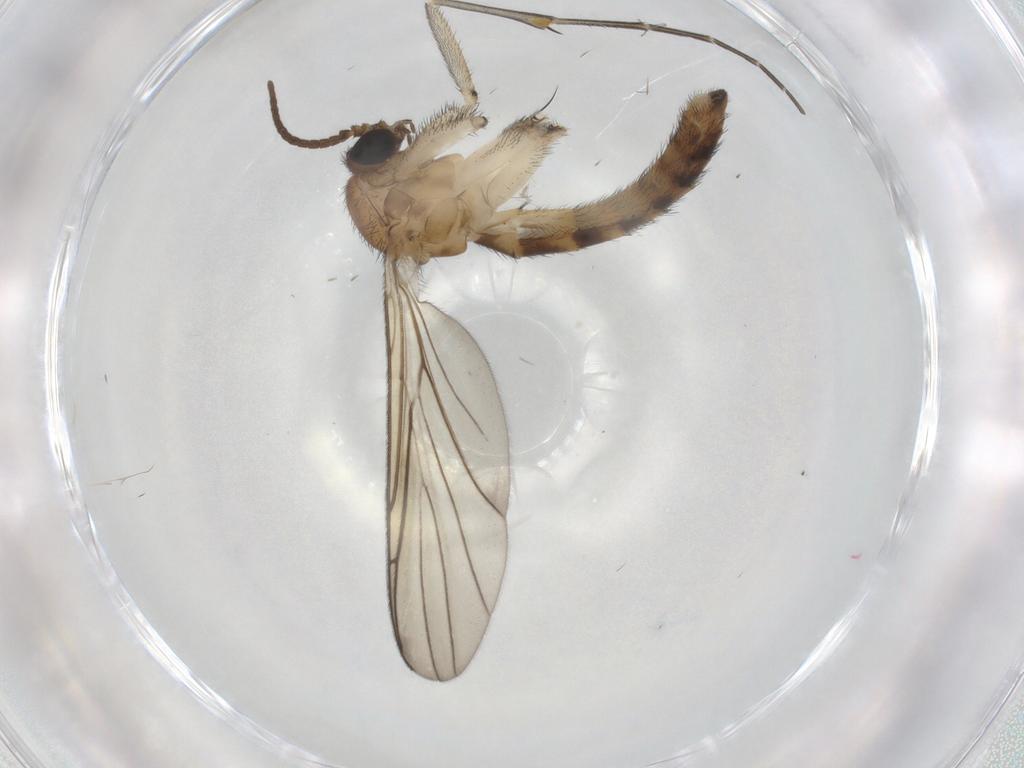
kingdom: Animalia
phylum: Arthropoda
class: Insecta
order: Diptera
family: Keroplatidae
